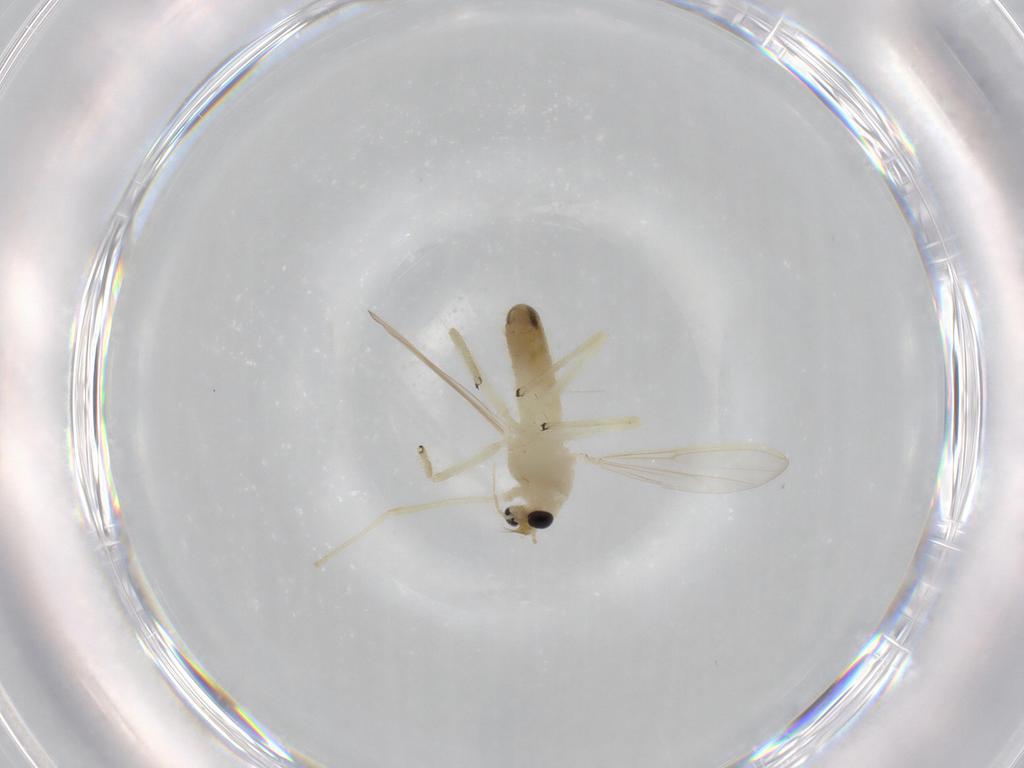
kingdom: Animalia
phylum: Arthropoda
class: Insecta
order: Diptera
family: Chironomidae
